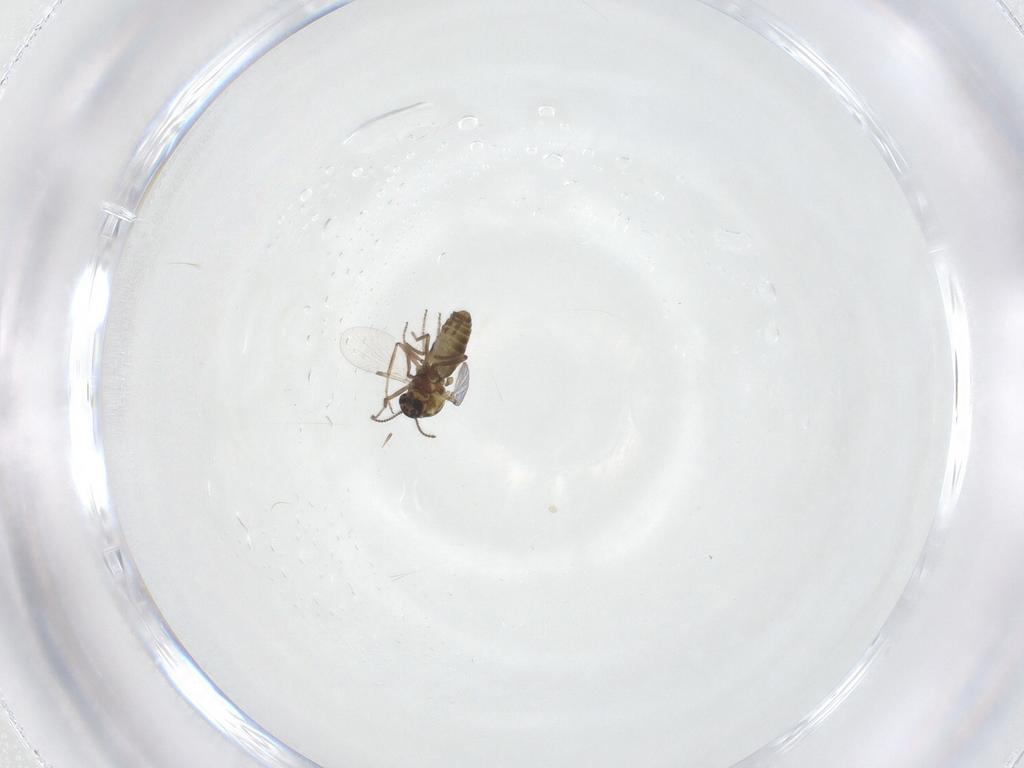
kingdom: Animalia
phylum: Arthropoda
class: Insecta
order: Diptera
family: Ceratopogonidae
